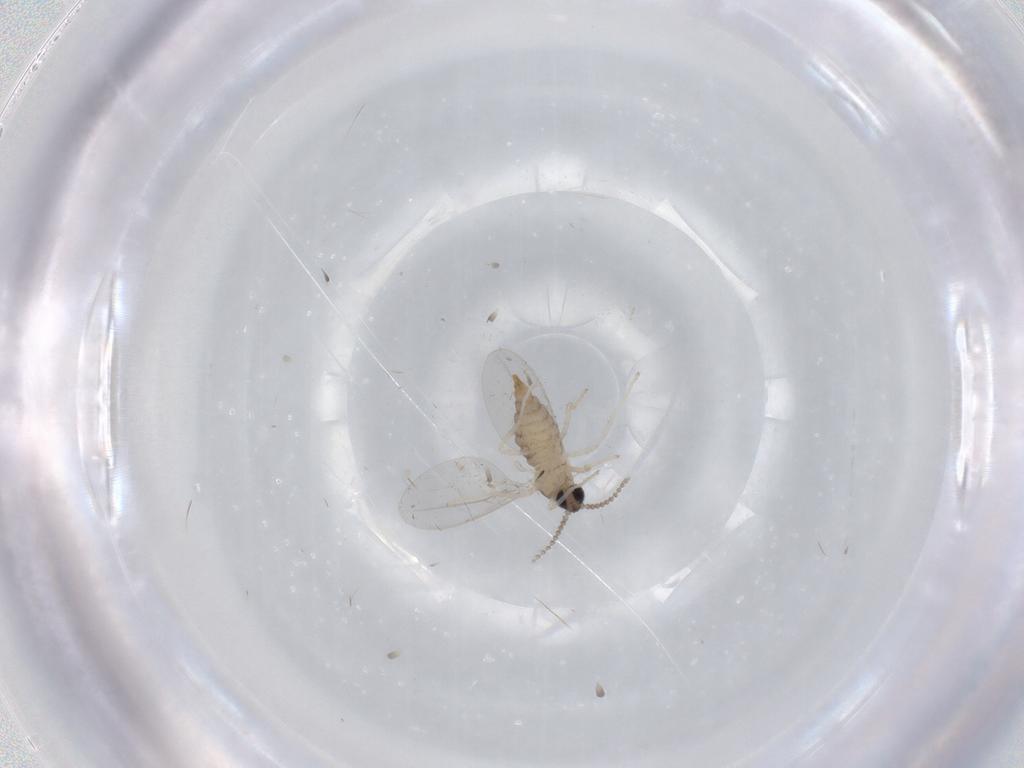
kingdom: Animalia
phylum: Arthropoda
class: Insecta
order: Diptera
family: Cecidomyiidae
